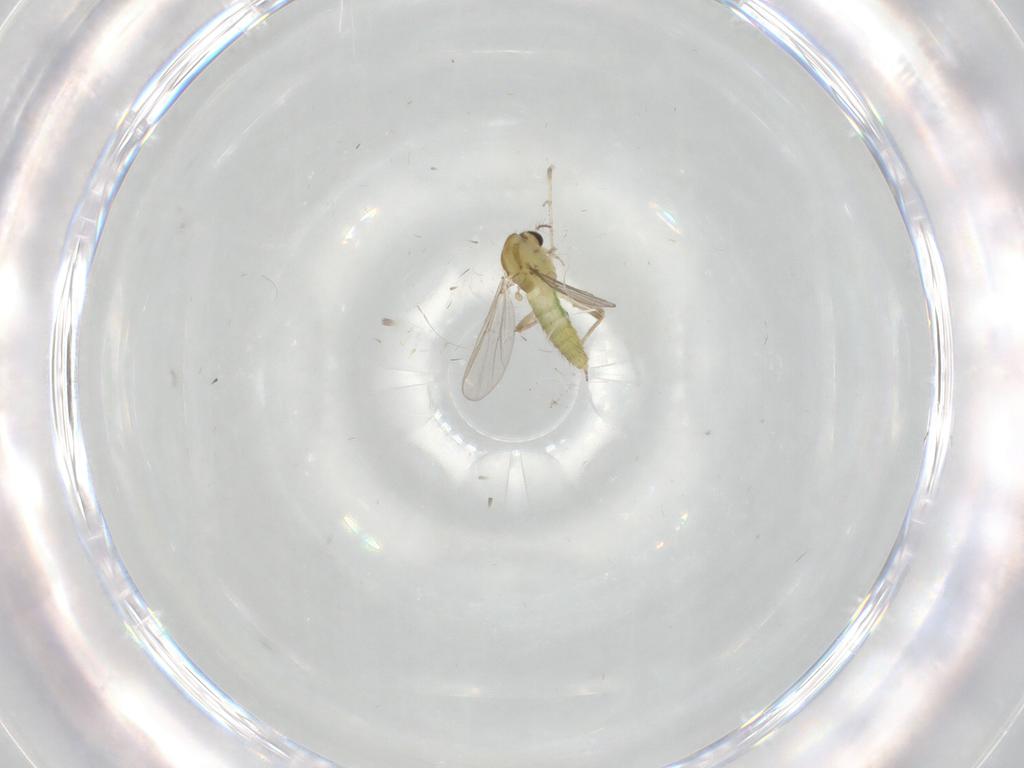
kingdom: Animalia
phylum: Arthropoda
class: Insecta
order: Diptera
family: Chironomidae
